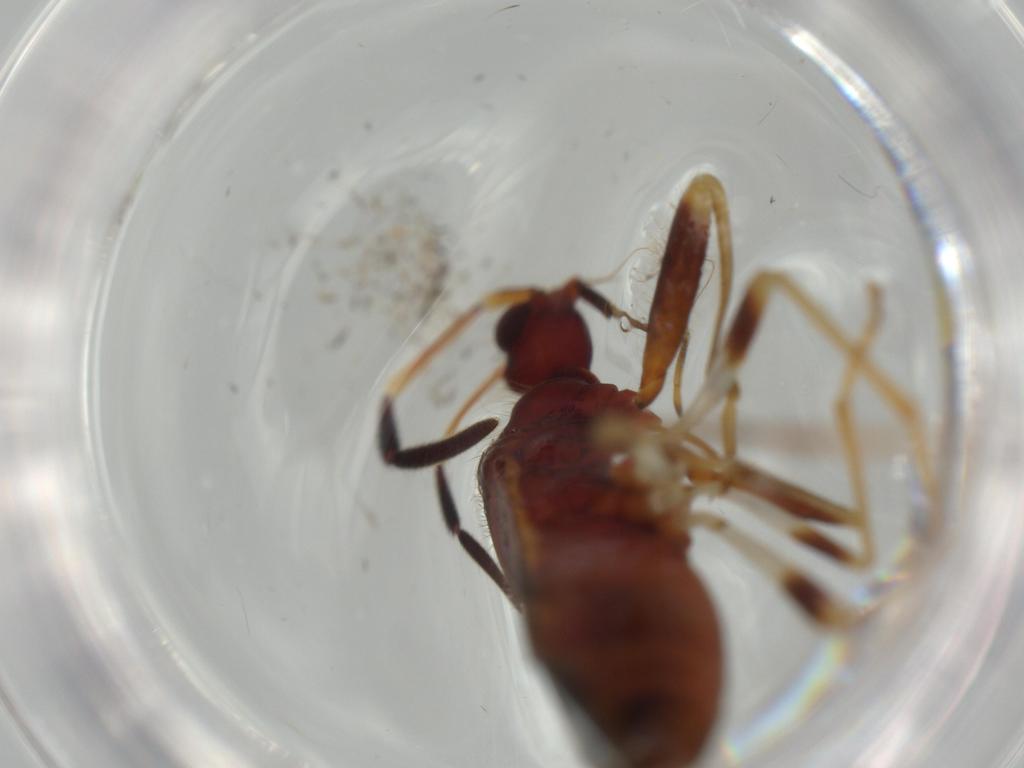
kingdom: Animalia
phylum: Arthropoda
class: Insecta
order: Hemiptera
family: Rhyparochromidae
